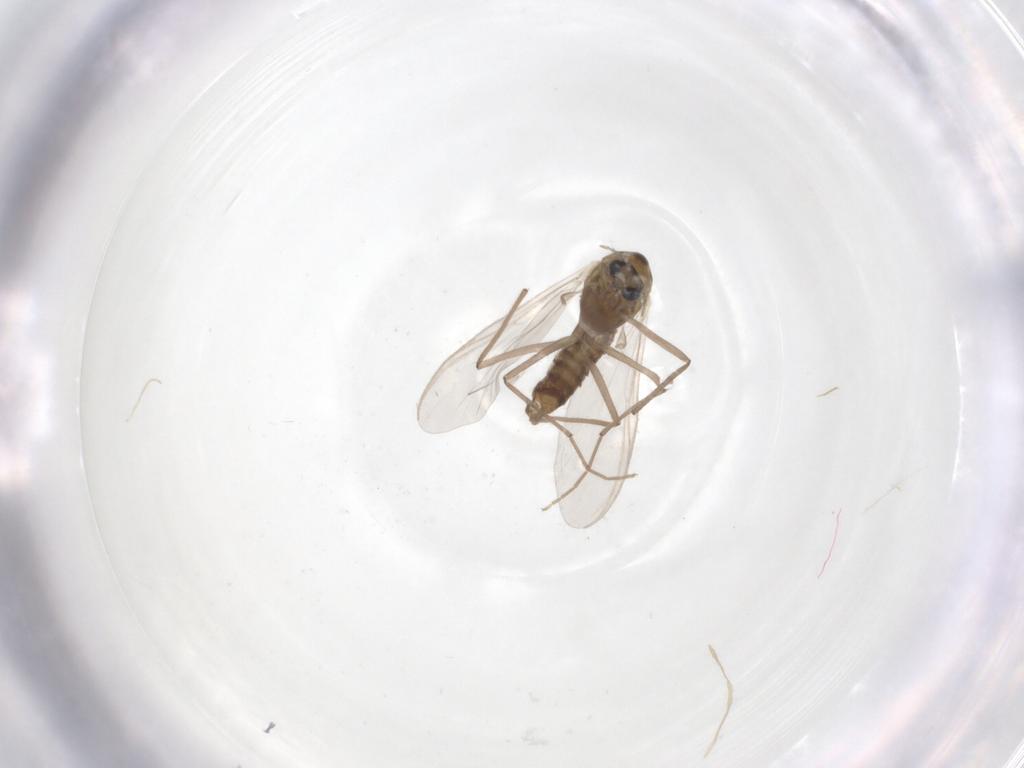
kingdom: Animalia
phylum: Arthropoda
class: Insecta
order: Diptera
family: Chironomidae
